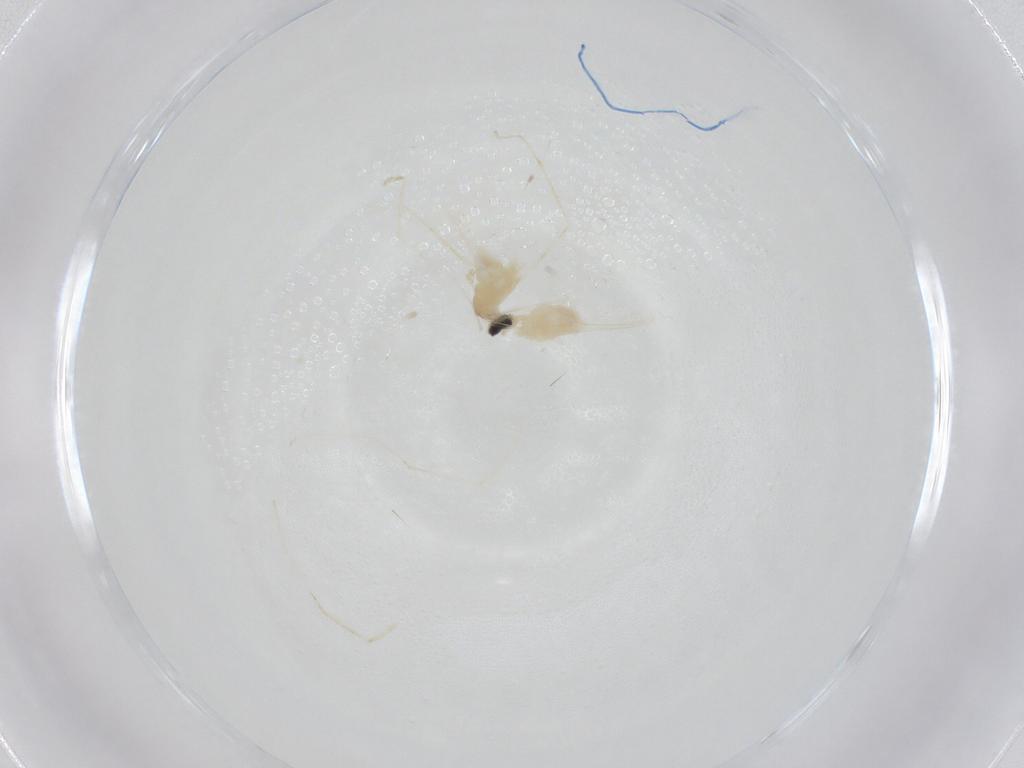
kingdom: Animalia
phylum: Arthropoda
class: Insecta
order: Diptera
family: Cecidomyiidae
